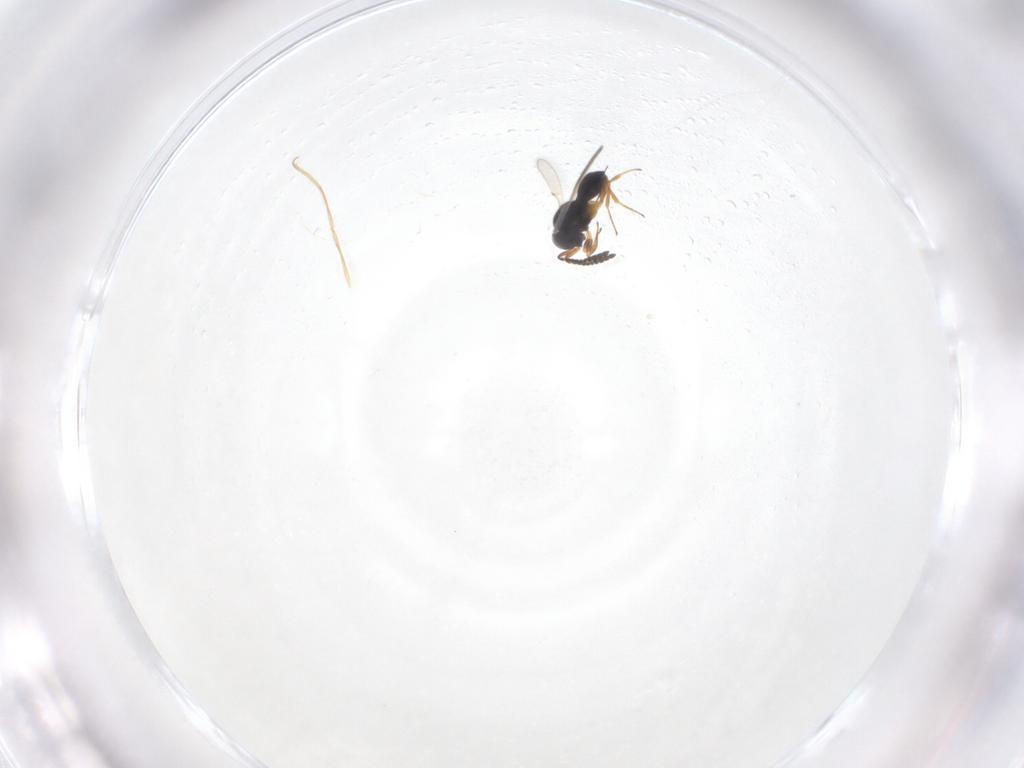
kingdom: Animalia
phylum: Arthropoda
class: Insecta
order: Hymenoptera
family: Scelionidae
